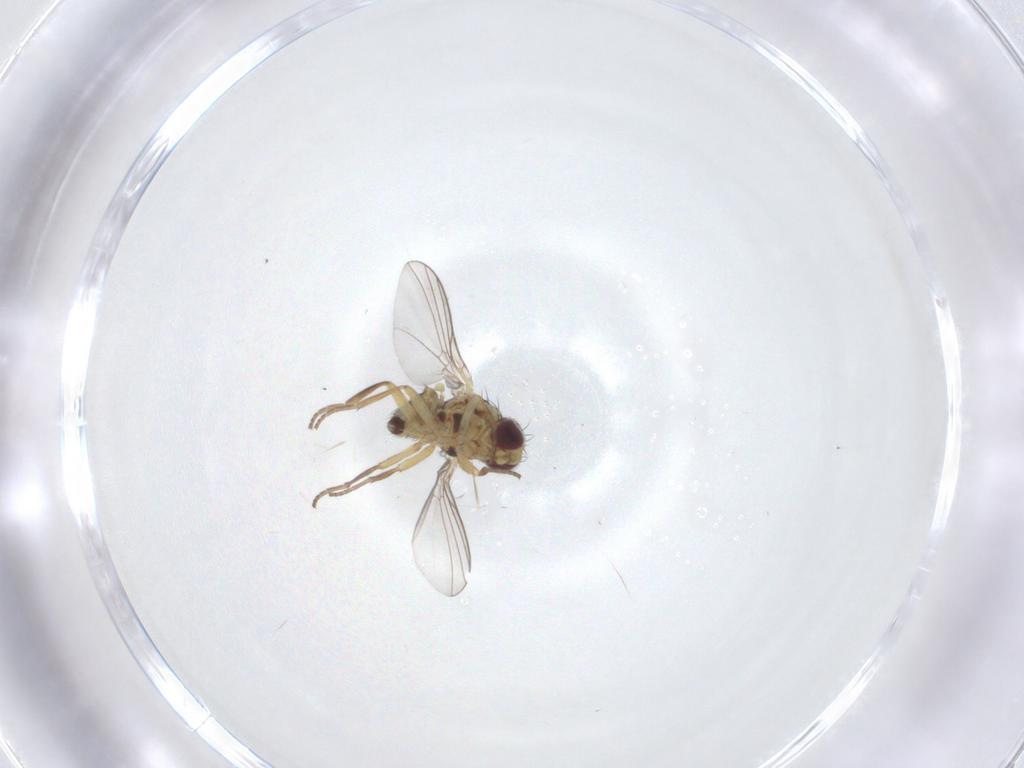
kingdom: Animalia
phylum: Arthropoda
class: Insecta
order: Diptera
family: Agromyzidae
